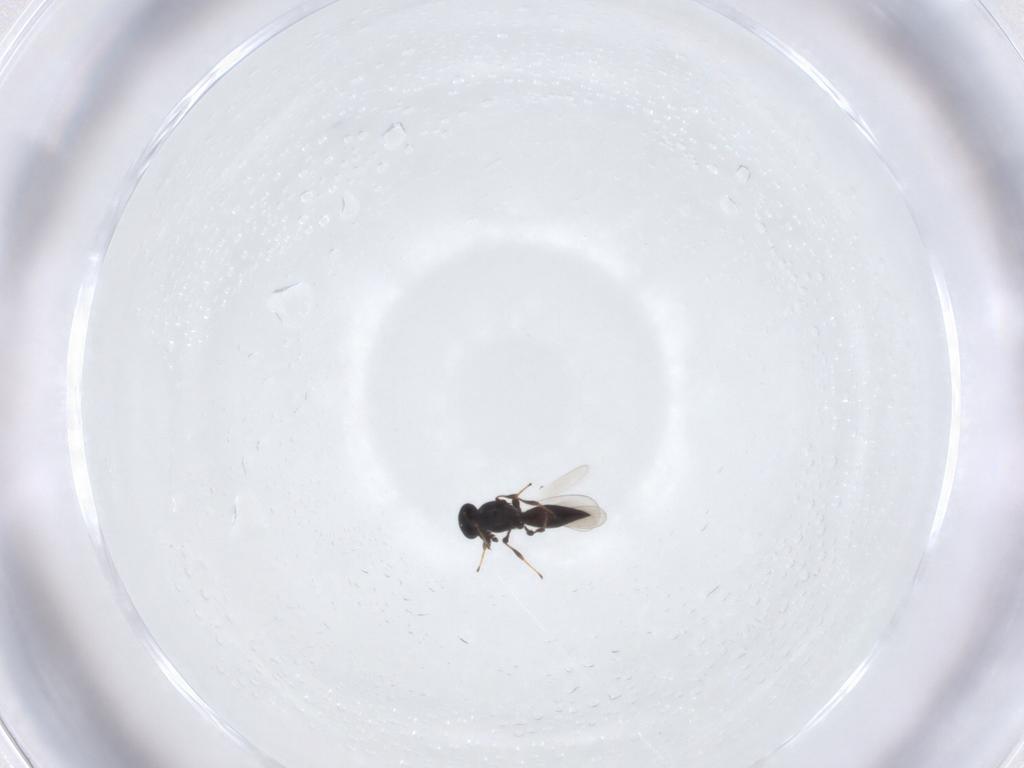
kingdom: Animalia
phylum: Arthropoda
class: Insecta
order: Hymenoptera
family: Platygastridae
